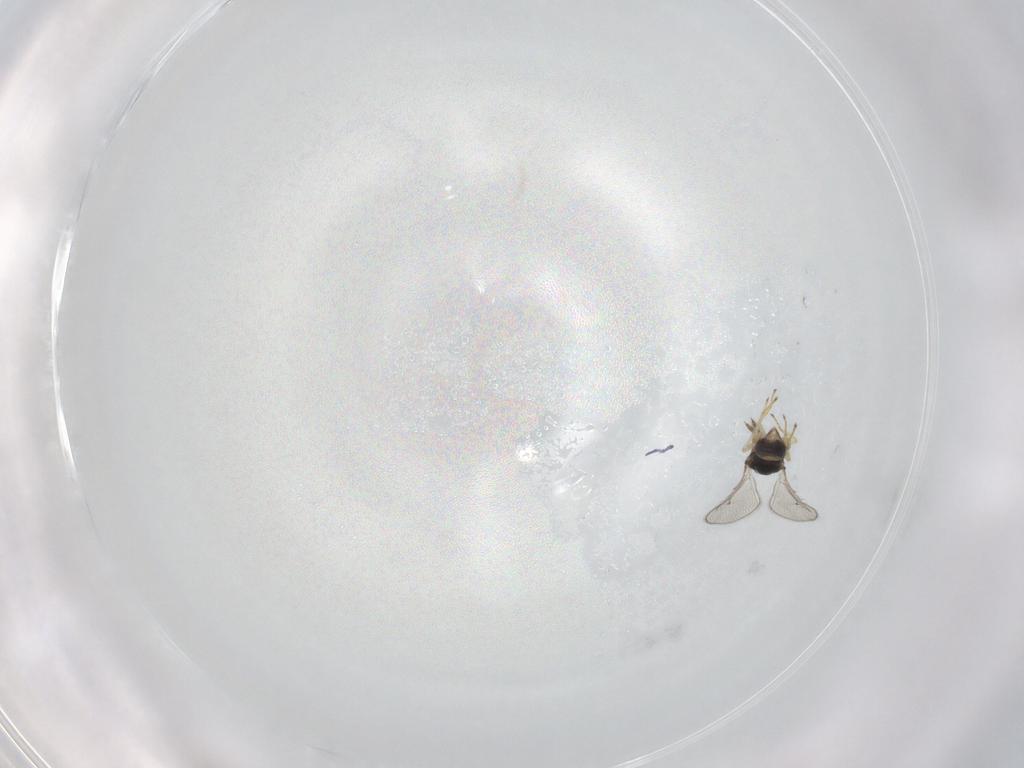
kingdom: Animalia
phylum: Arthropoda
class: Insecta
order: Hymenoptera
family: Eulophidae
